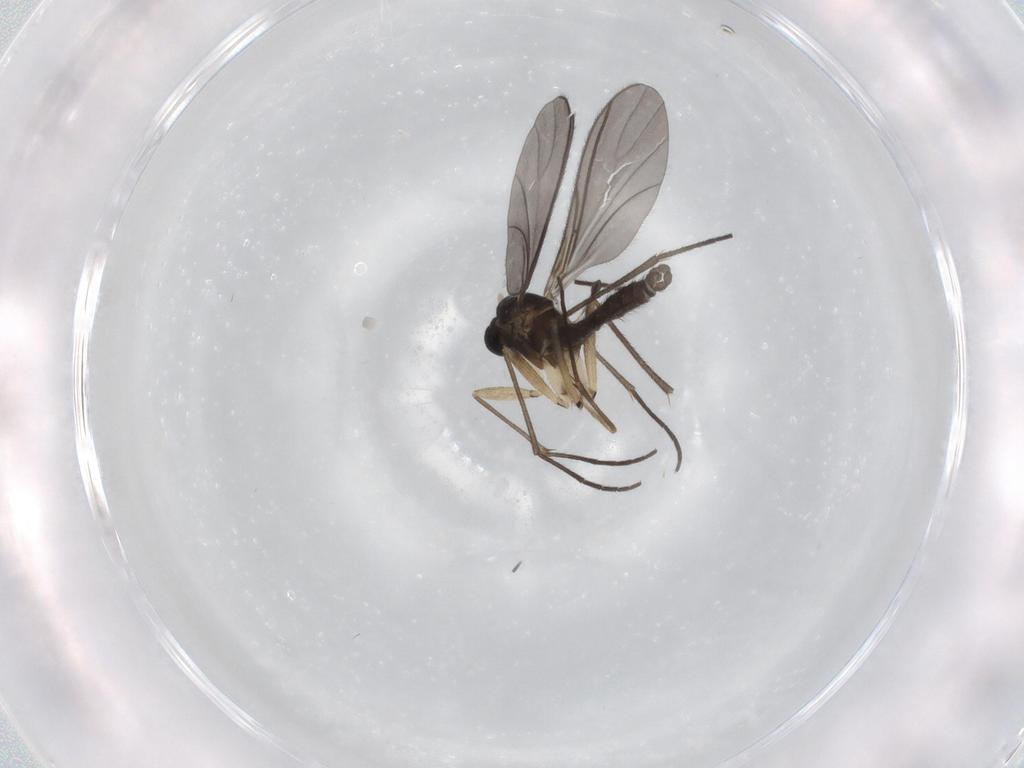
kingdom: Animalia
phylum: Arthropoda
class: Insecta
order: Diptera
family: Sciaridae
